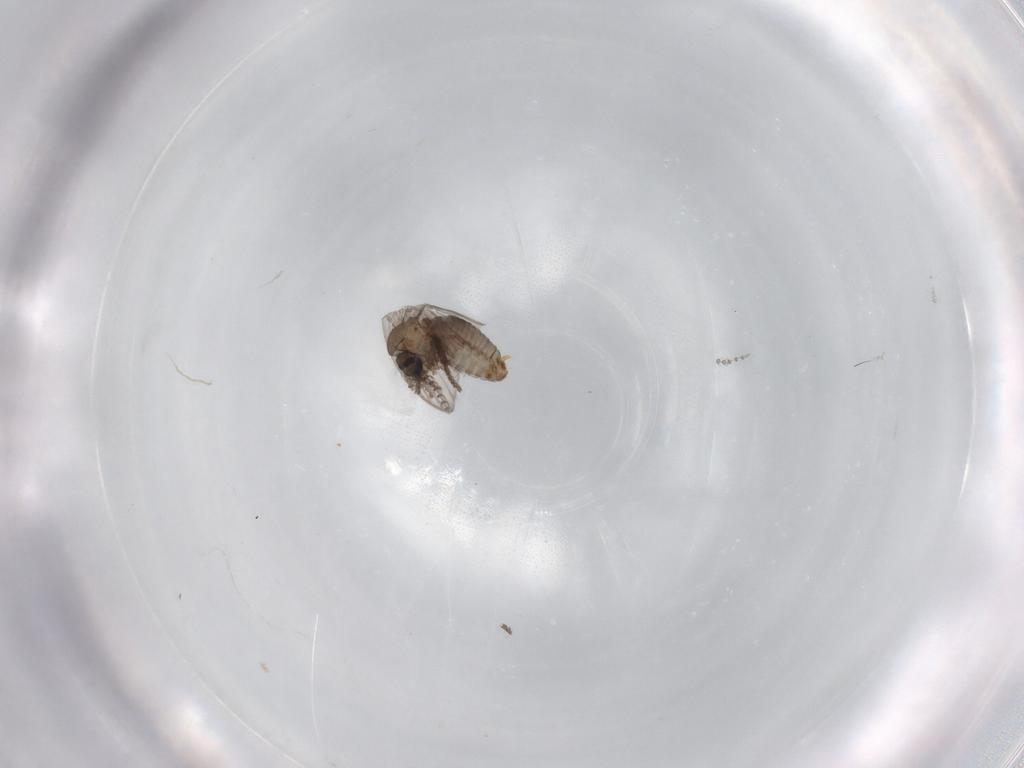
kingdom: Animalia
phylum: Arthropoda
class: Insecta
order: Diptera
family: Psychodidae
